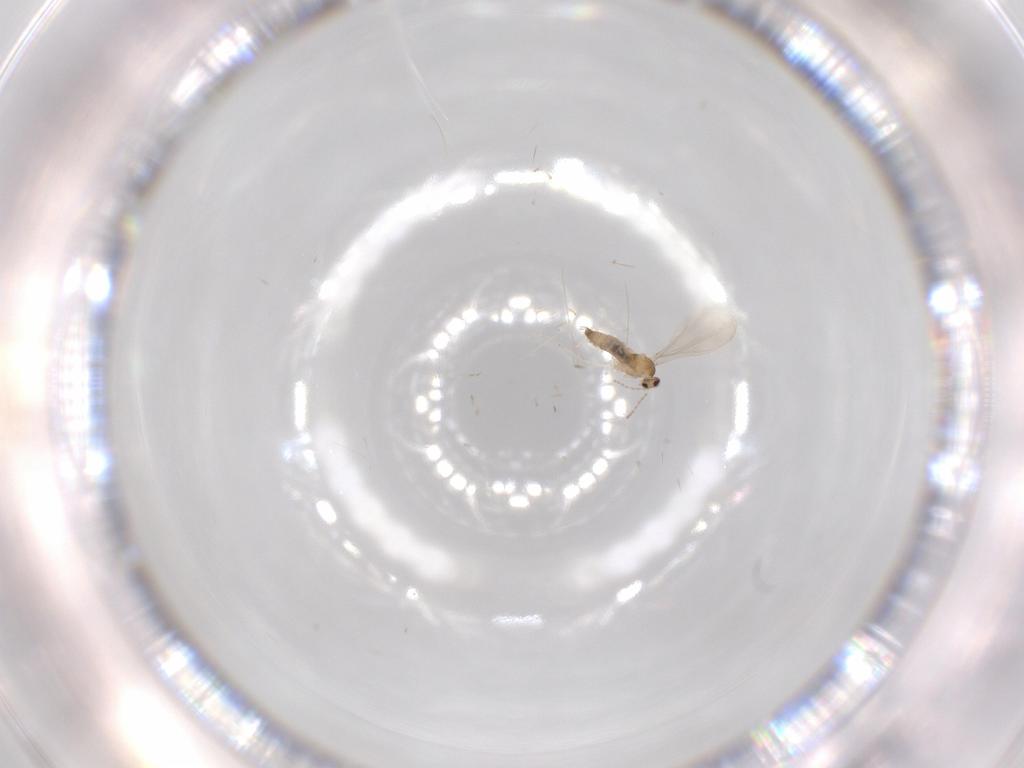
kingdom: Animalia
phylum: Arthropoda
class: Insecta
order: Diptera
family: Cecidomyiidae
